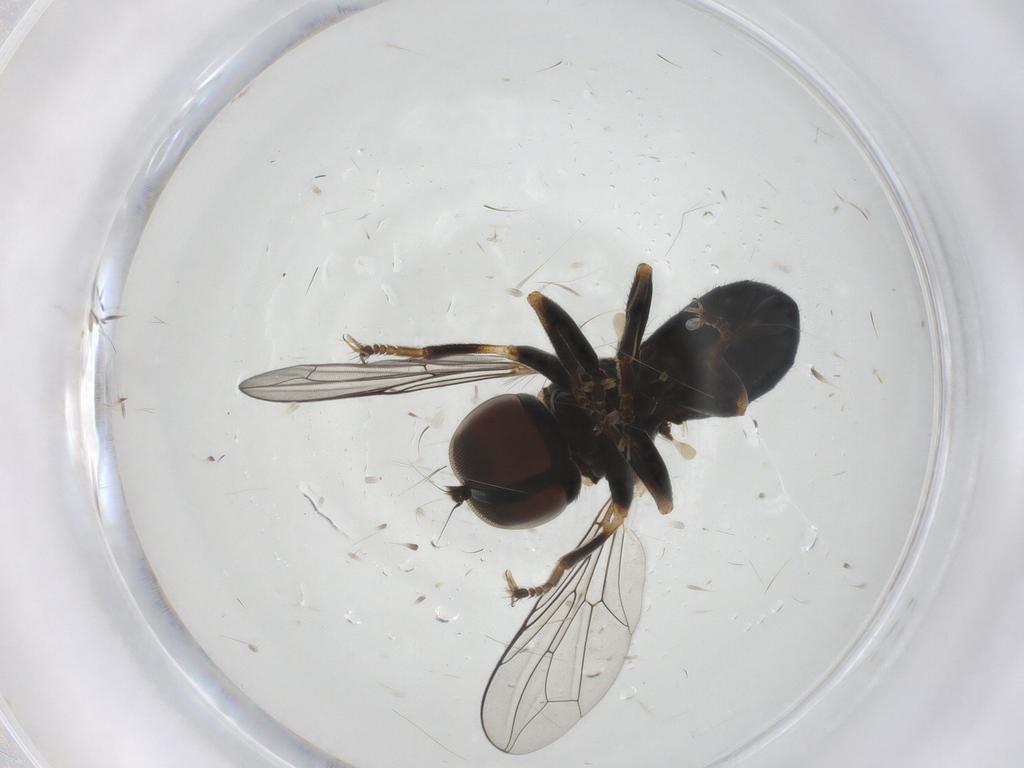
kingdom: Animalia
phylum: Arthropoda
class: Insecta
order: Diptera
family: Pipunculidae
